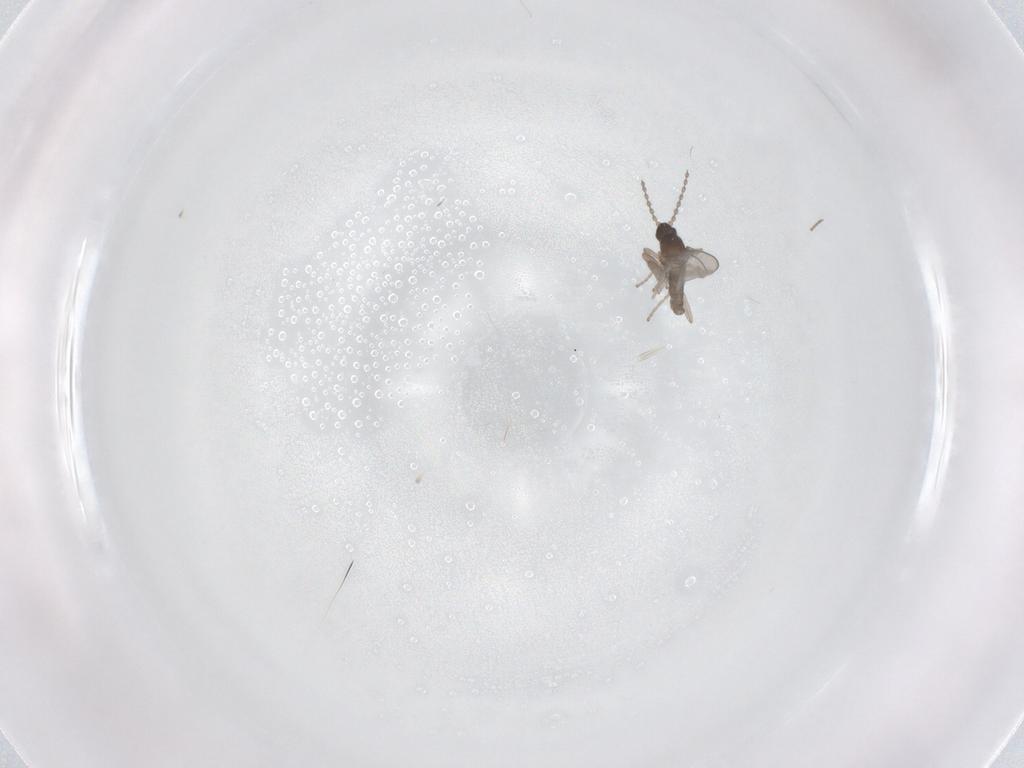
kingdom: Animalia
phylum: Arthropoda
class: Insecta
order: Diptera
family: Cecidomyiidae
